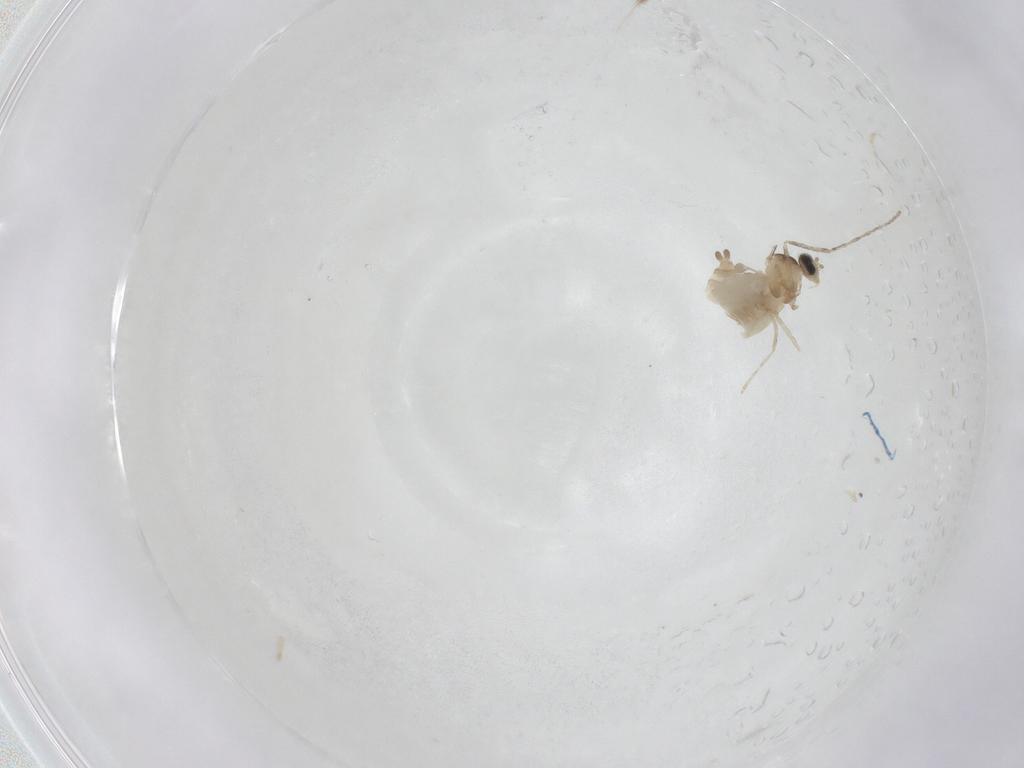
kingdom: Animalia
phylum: Arthropoda
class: Insecta
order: Diptera
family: Cecidomyiidae
